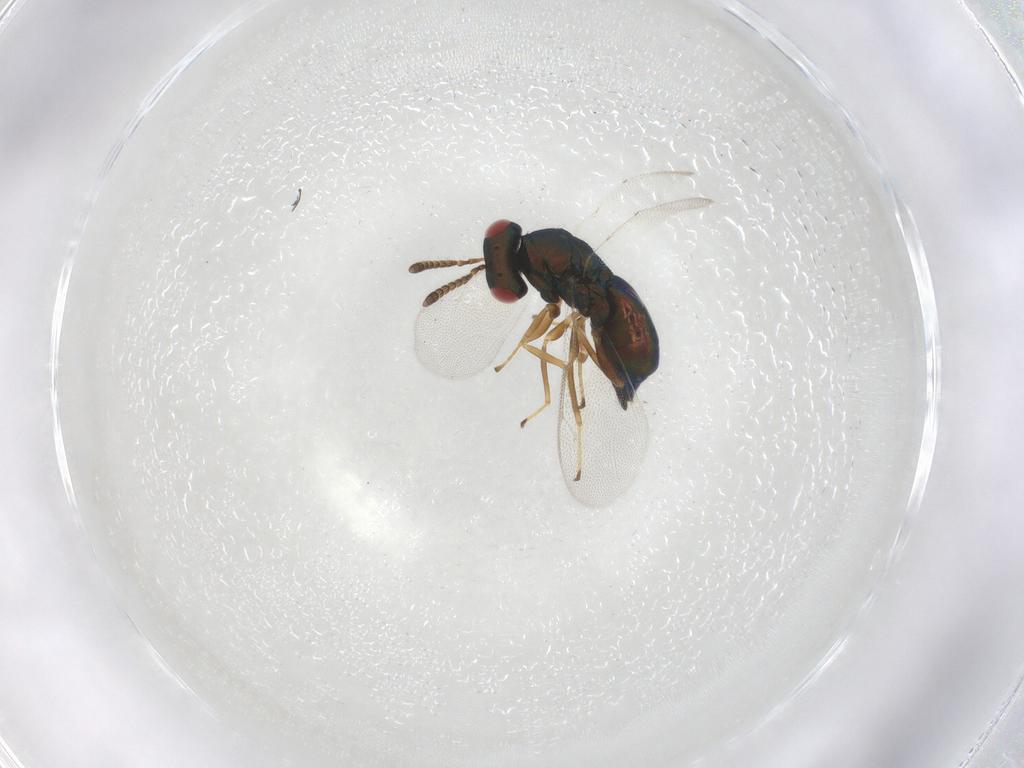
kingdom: Animalia
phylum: Arthropoda
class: Insecta
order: Hymenoptera
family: Pteromalidae
